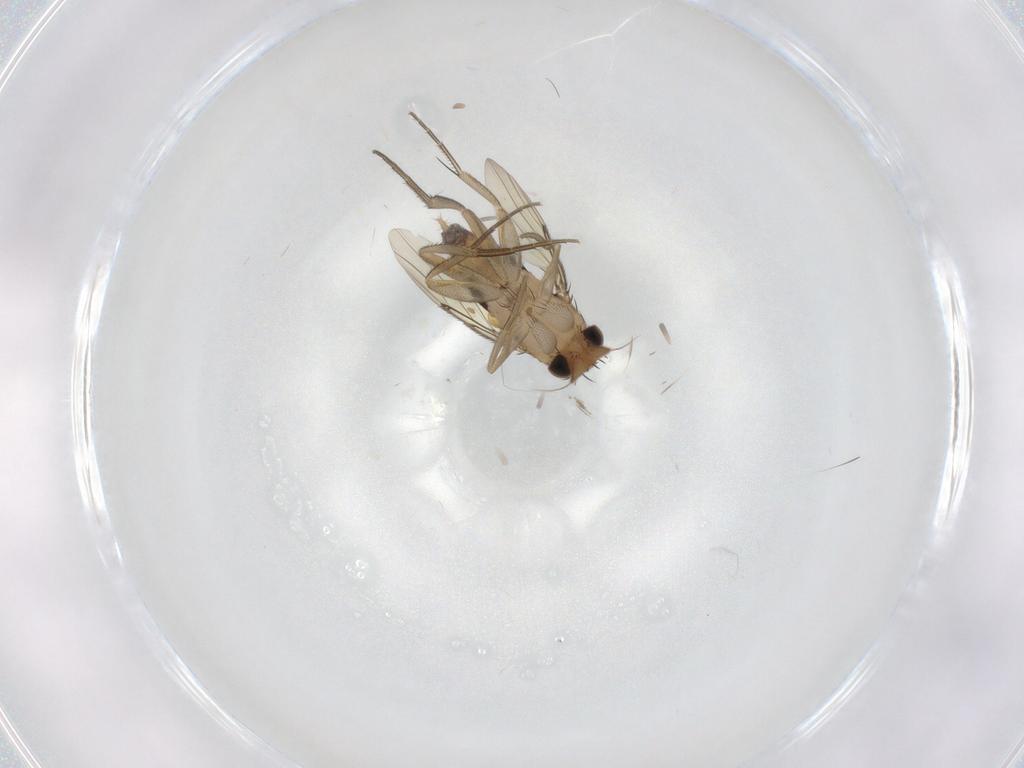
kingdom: Animalia
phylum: Arthropoda
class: Insecta
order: Diptera
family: Phoridae
